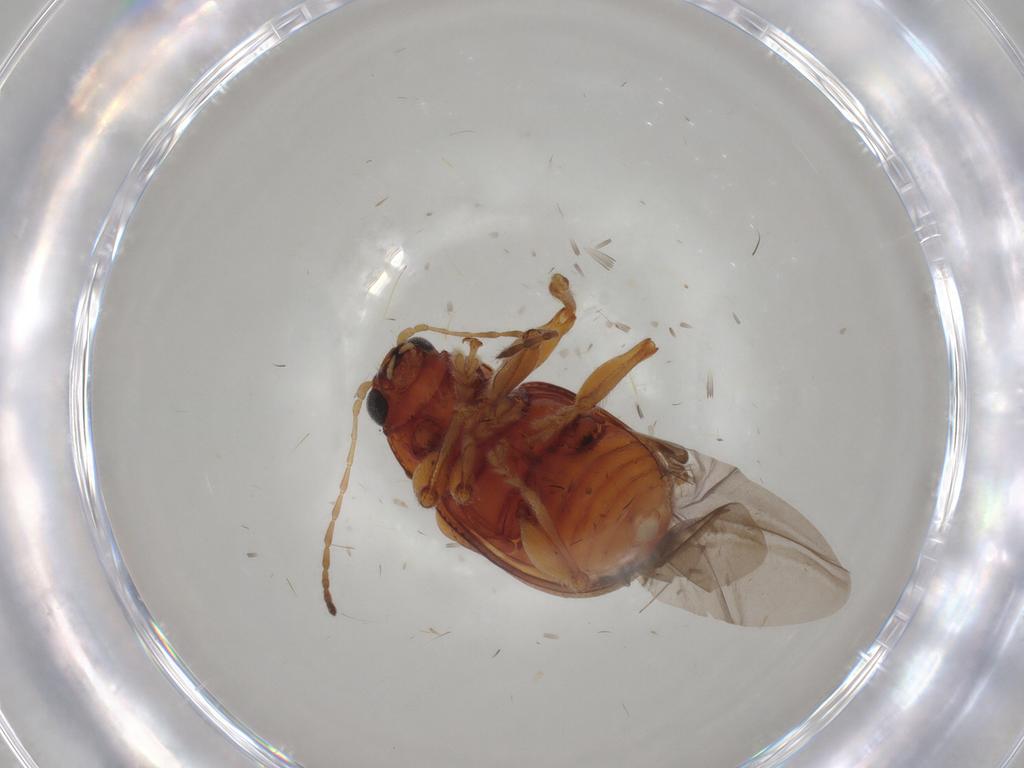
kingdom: Animalia
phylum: Arthropoda
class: Insecta
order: Coleoptera
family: Chrysomelidae
